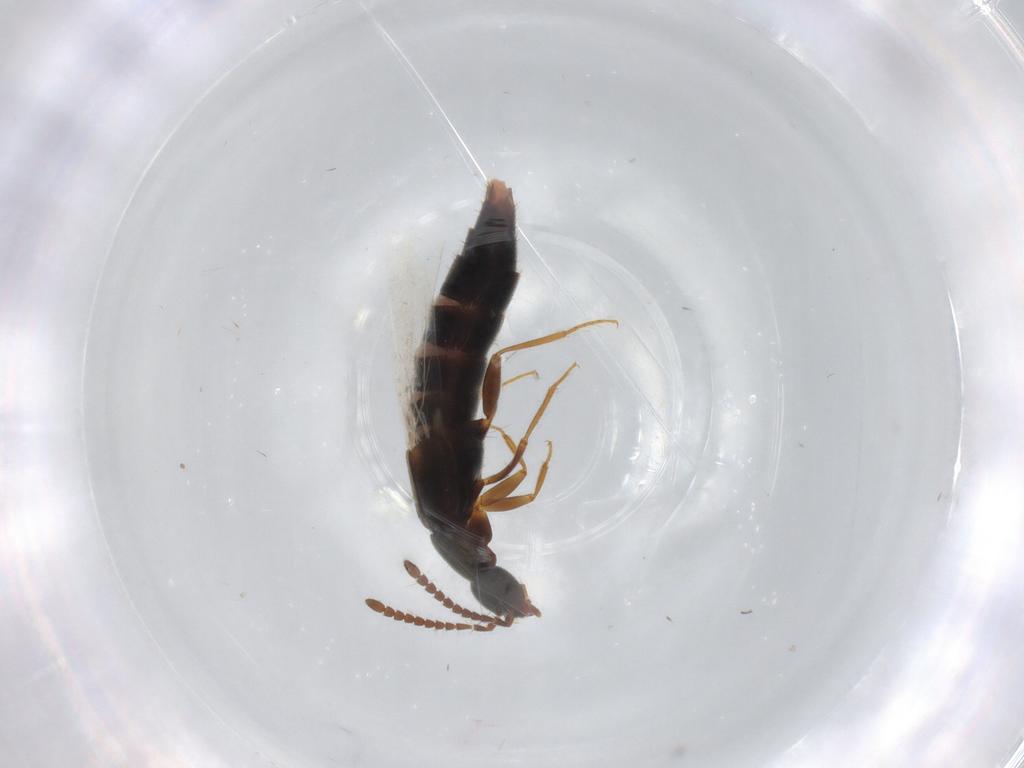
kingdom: Animalia
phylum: Arthropoda
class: Insecta
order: Coleoptera
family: Staphylinidae
